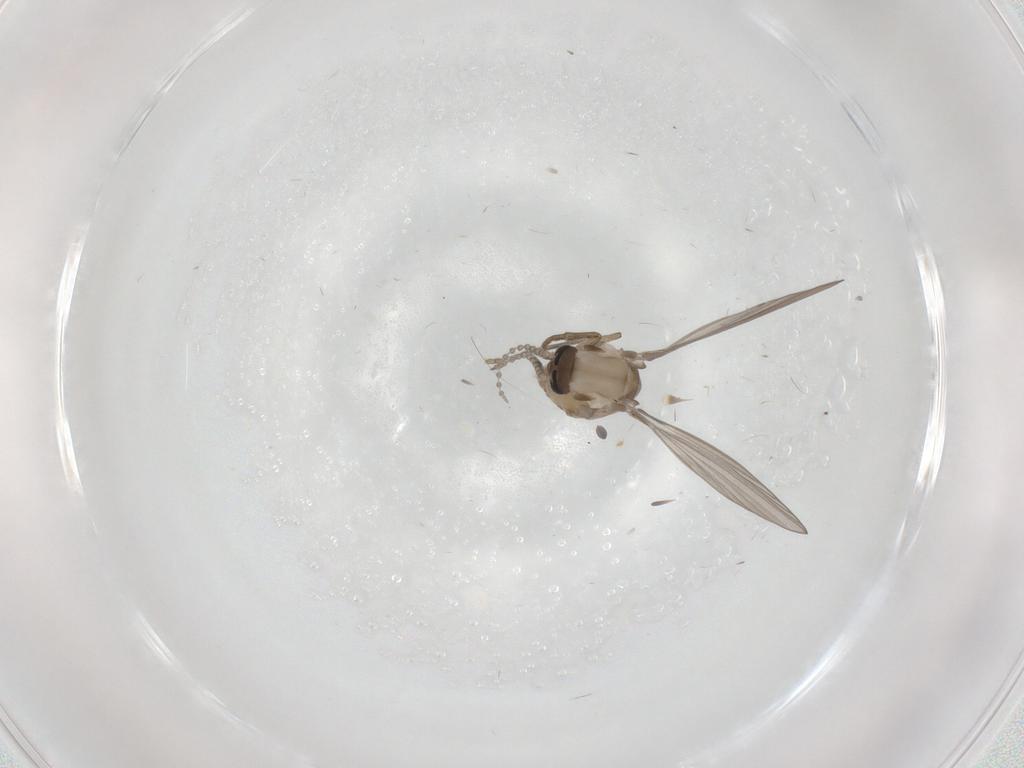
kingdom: Animalia
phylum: Arthropoda
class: Insecta
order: Diptera
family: Psychodidae
